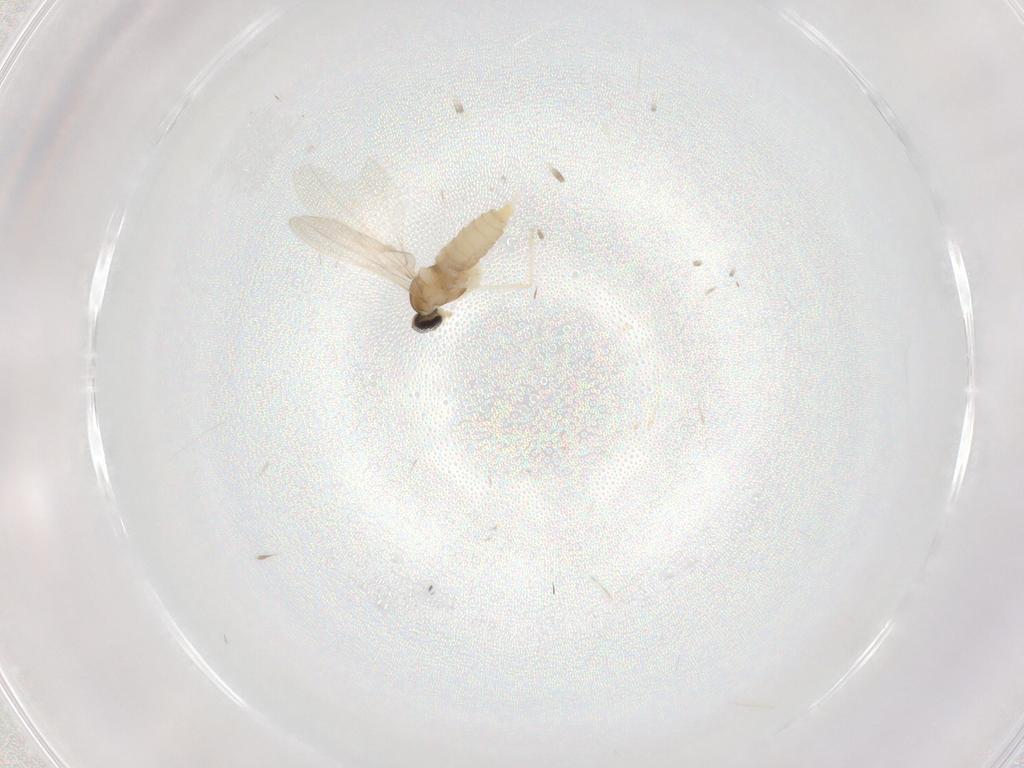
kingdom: Animalia
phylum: Arthropoda
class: Insecta
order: Diptera
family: Cecidomyiidae
